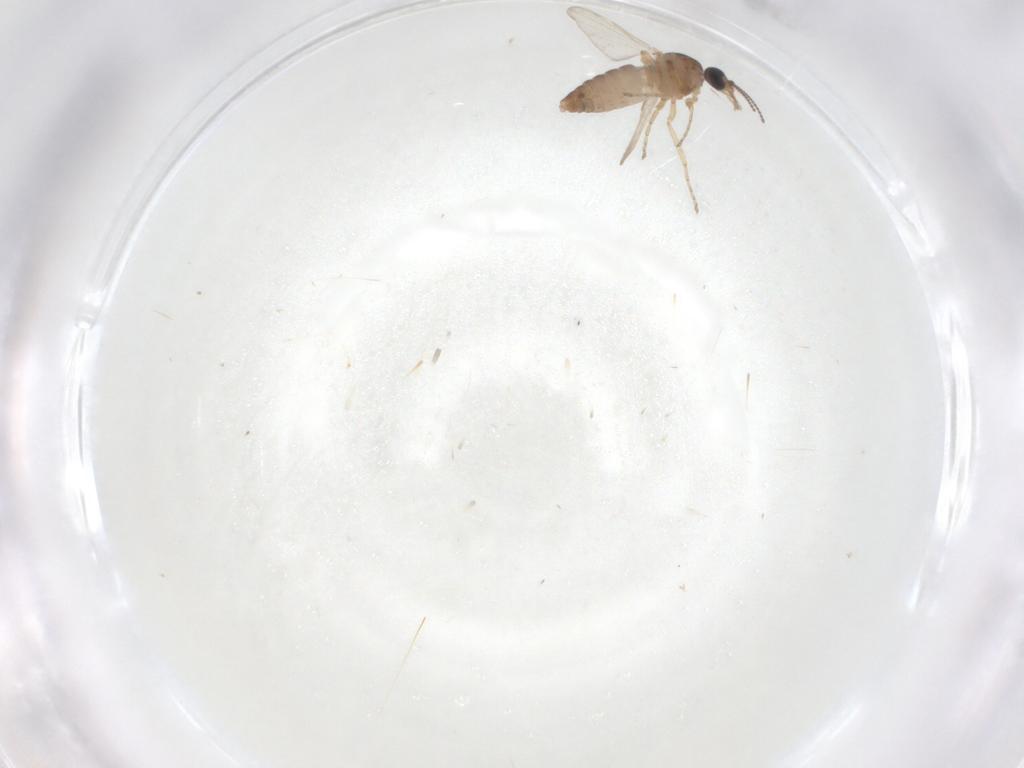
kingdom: Animalia
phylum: Arthropoda
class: Insecta
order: Diptera
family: Ceratopogonidae
